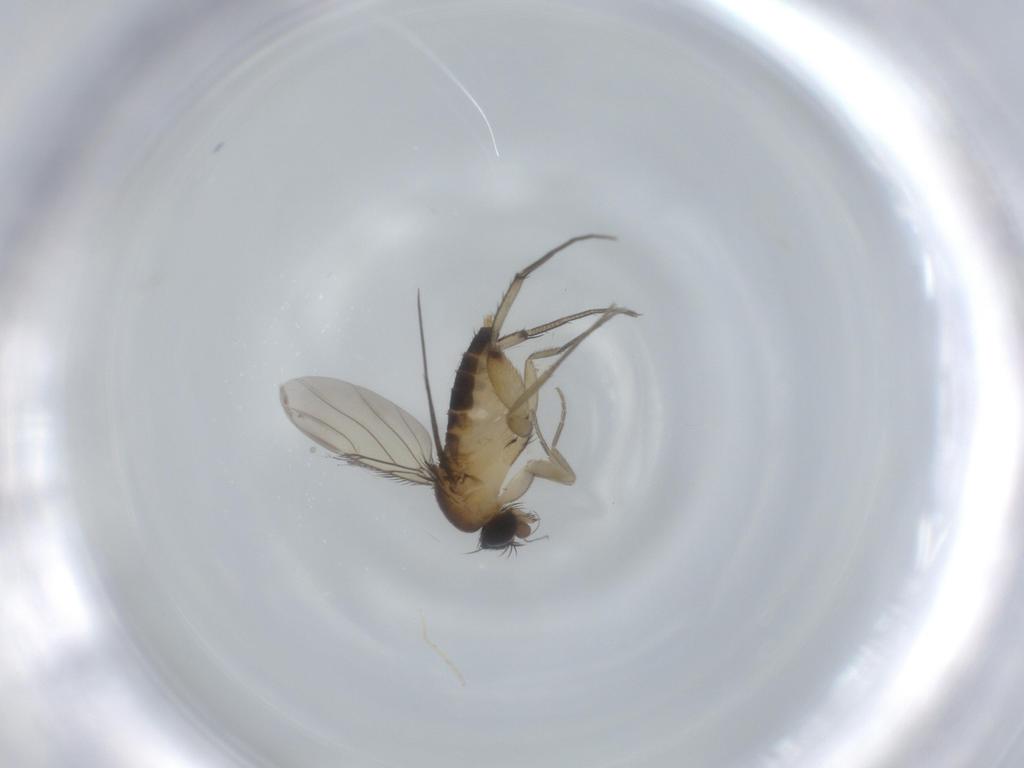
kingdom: Animalia
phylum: Arthropoda
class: Insecta
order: Diptera
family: Phoridae
